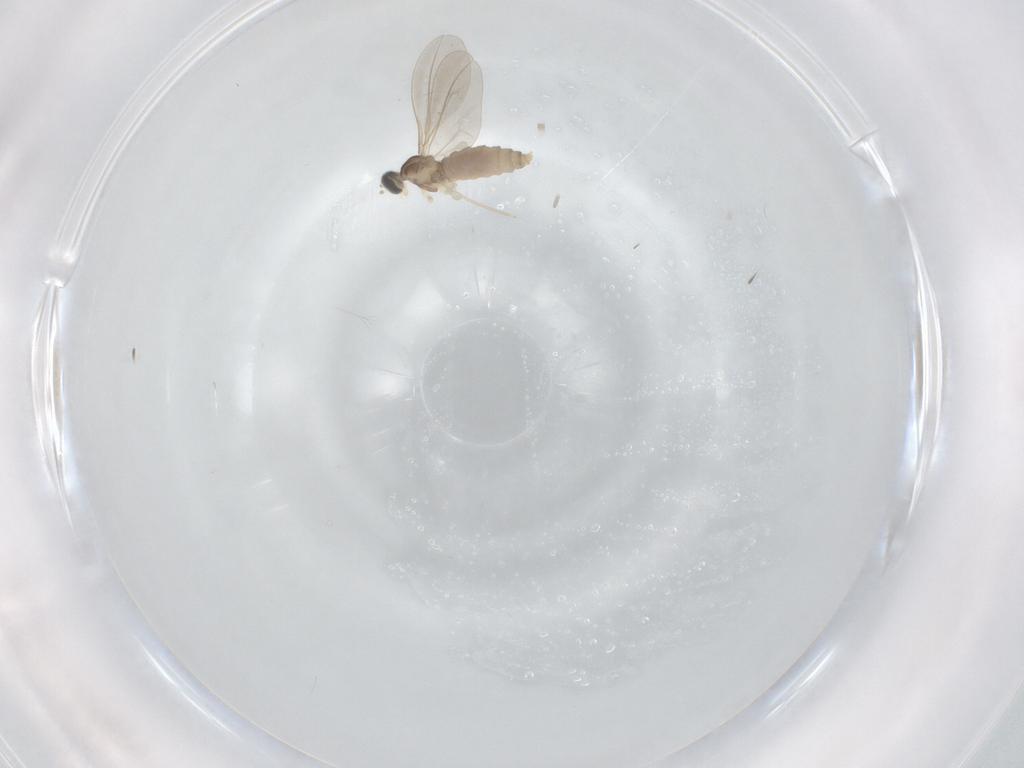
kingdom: Animalia
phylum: Arthropoda
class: Insecta
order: Diptera
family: Cecidomyiidae
